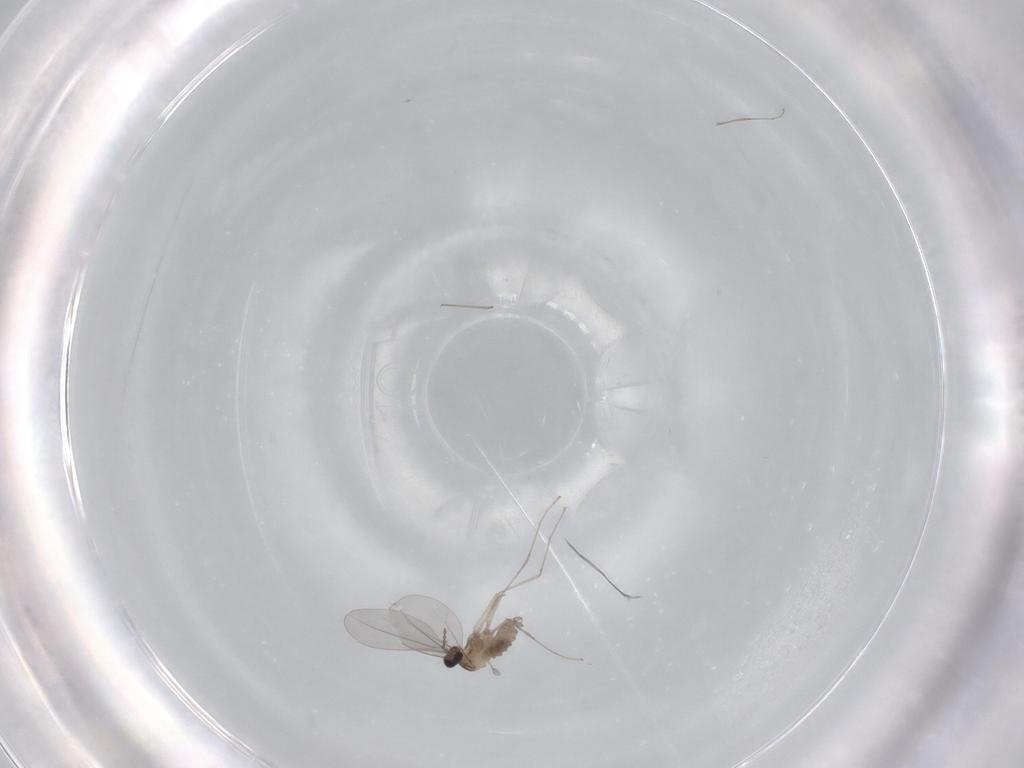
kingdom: Animalia
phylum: Arthropoda
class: Insecta
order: Diptera
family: Cecidomyiidae
